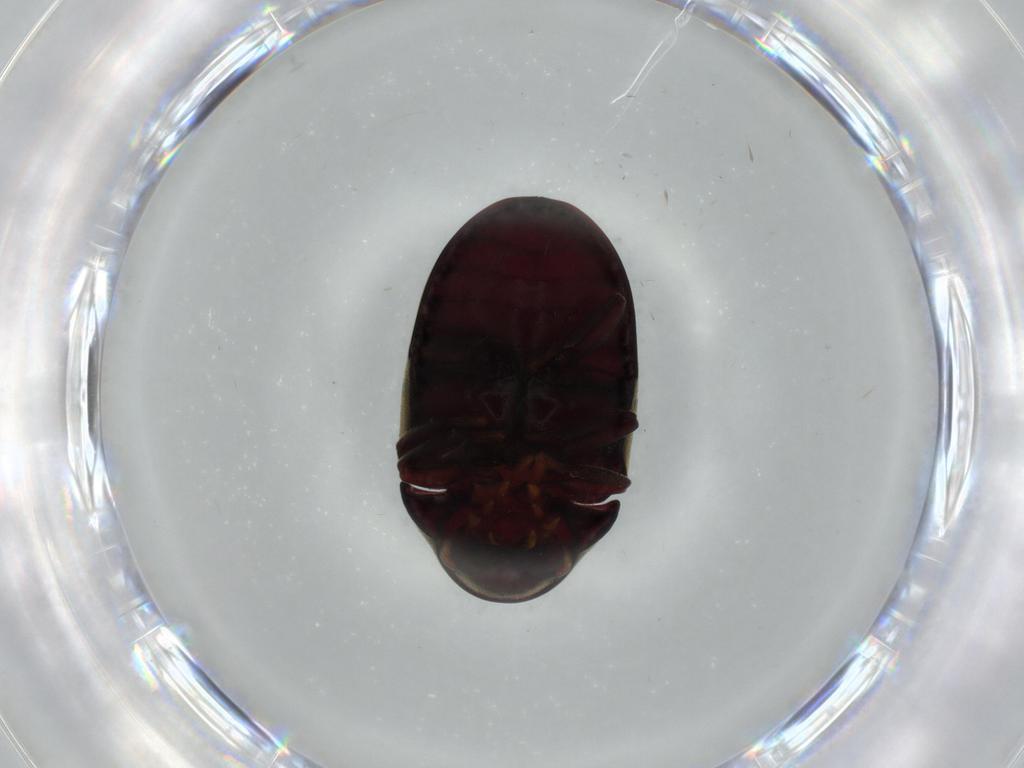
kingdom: Animalia
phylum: Arthropoda
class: Insecta
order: Coleoptera
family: Ptinidae
